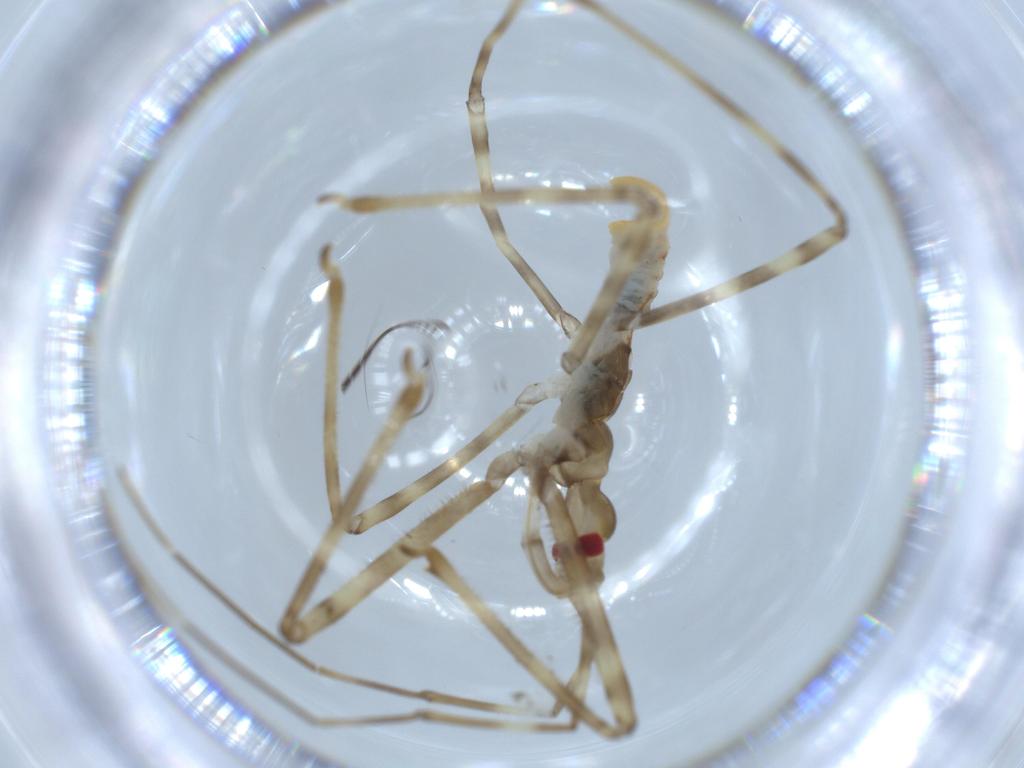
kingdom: Animalia
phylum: Arthropoda
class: Insecta
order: Hemiptera
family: Reduviidae
